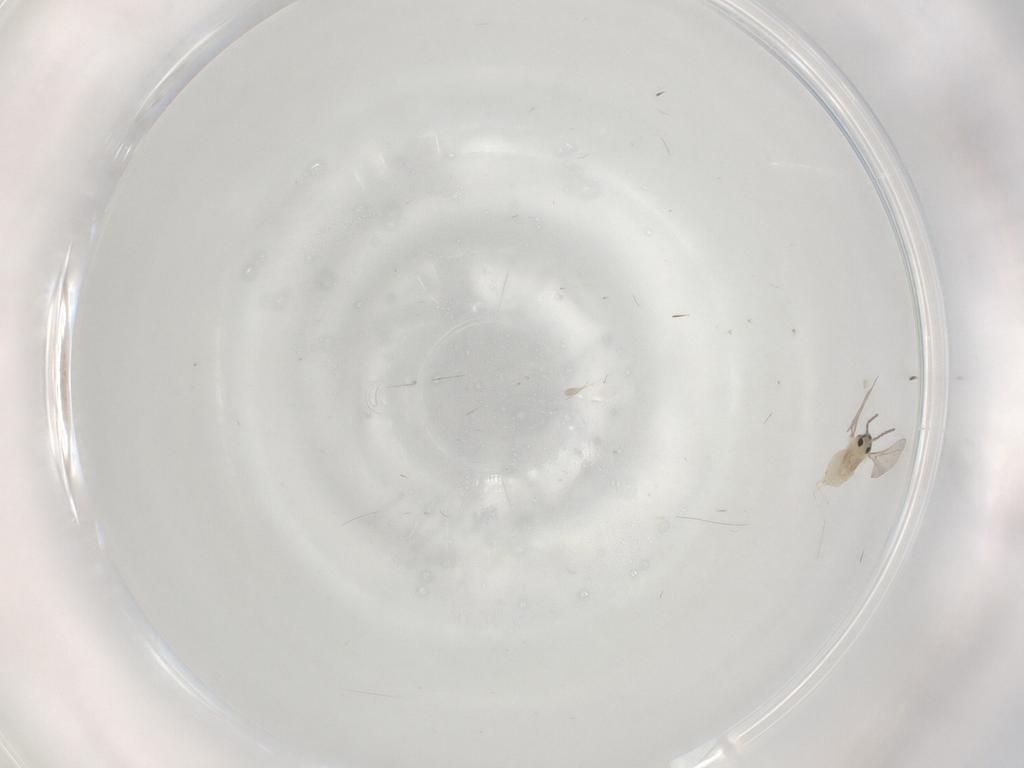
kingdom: Animalia
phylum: Arthropoda
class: Insecta
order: Diptera
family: Cecidomyiidae
